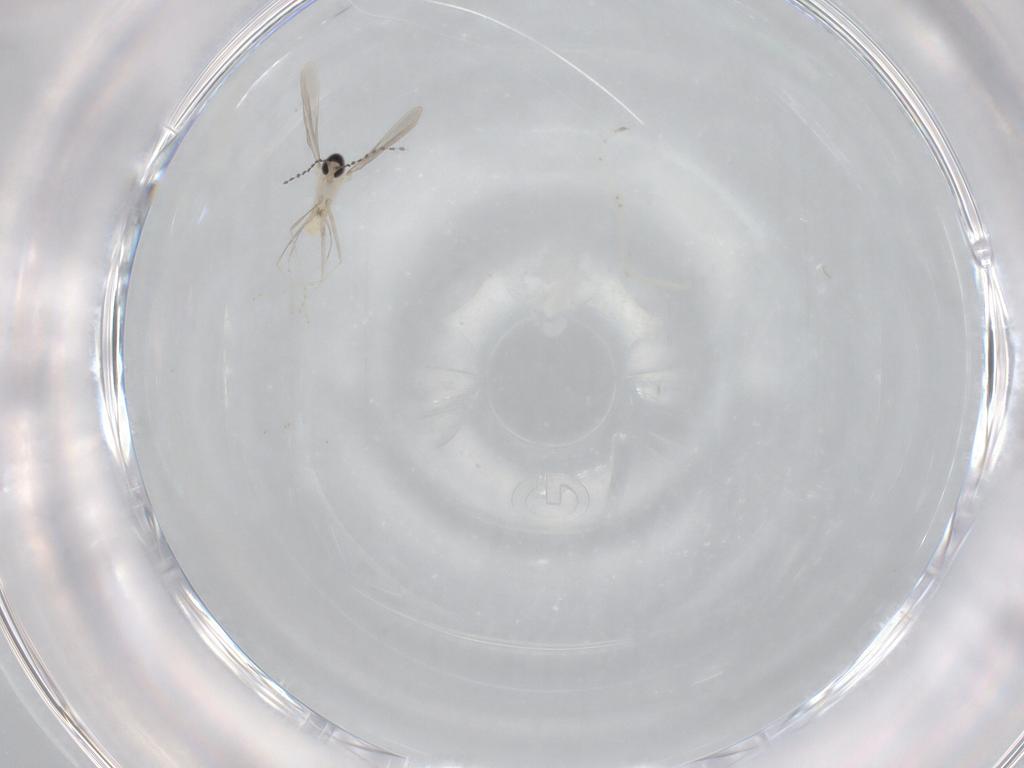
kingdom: Animalia
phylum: Arthropoda
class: Insecta
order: Diptera
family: Cecidomyiidae
